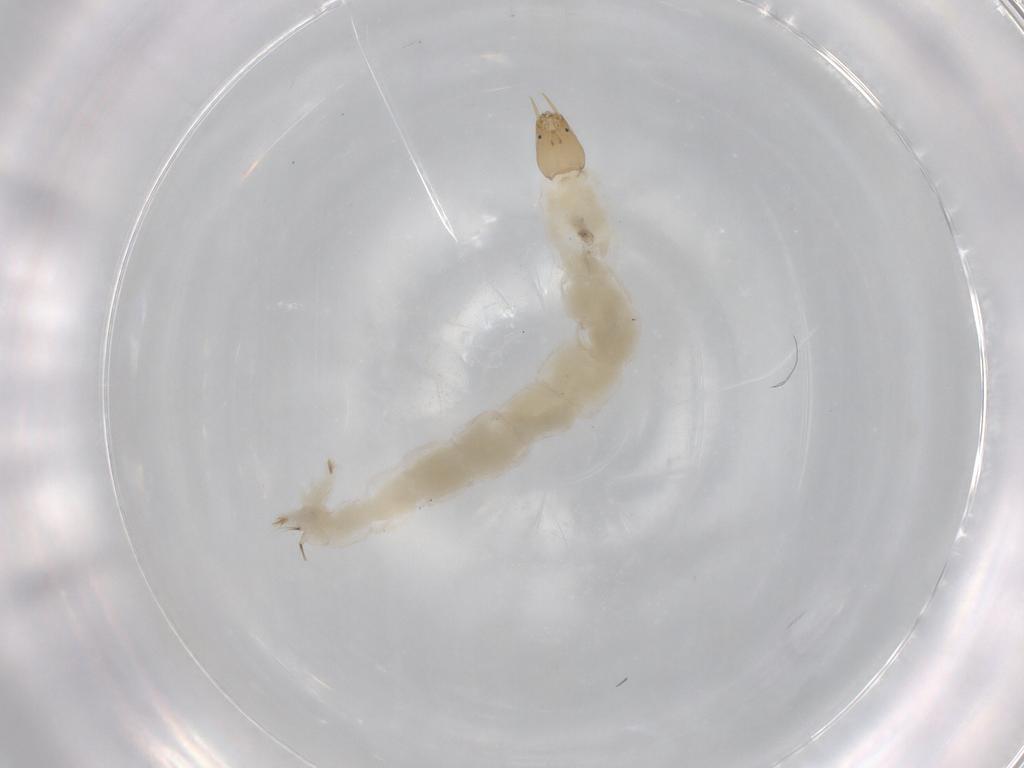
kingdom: Animalia
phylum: Arthropoda
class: Insecta
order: Diptera
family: Chironomidae
